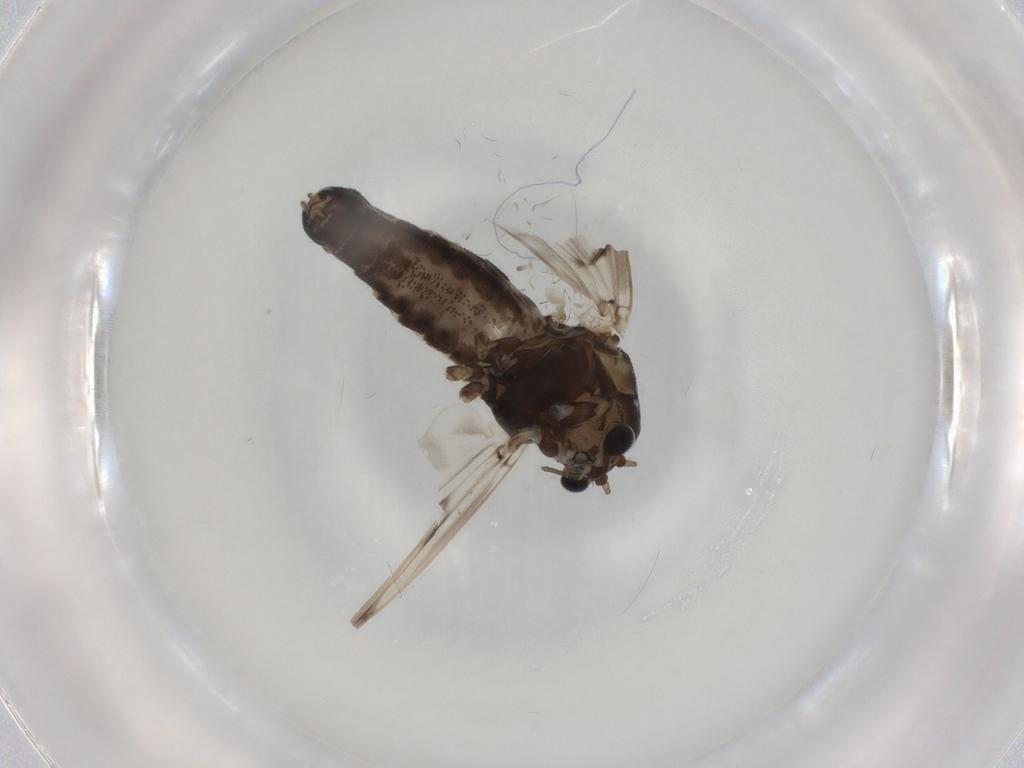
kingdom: Animalia
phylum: Arthropoda
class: Insecta
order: Diptera
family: Chironomidae
